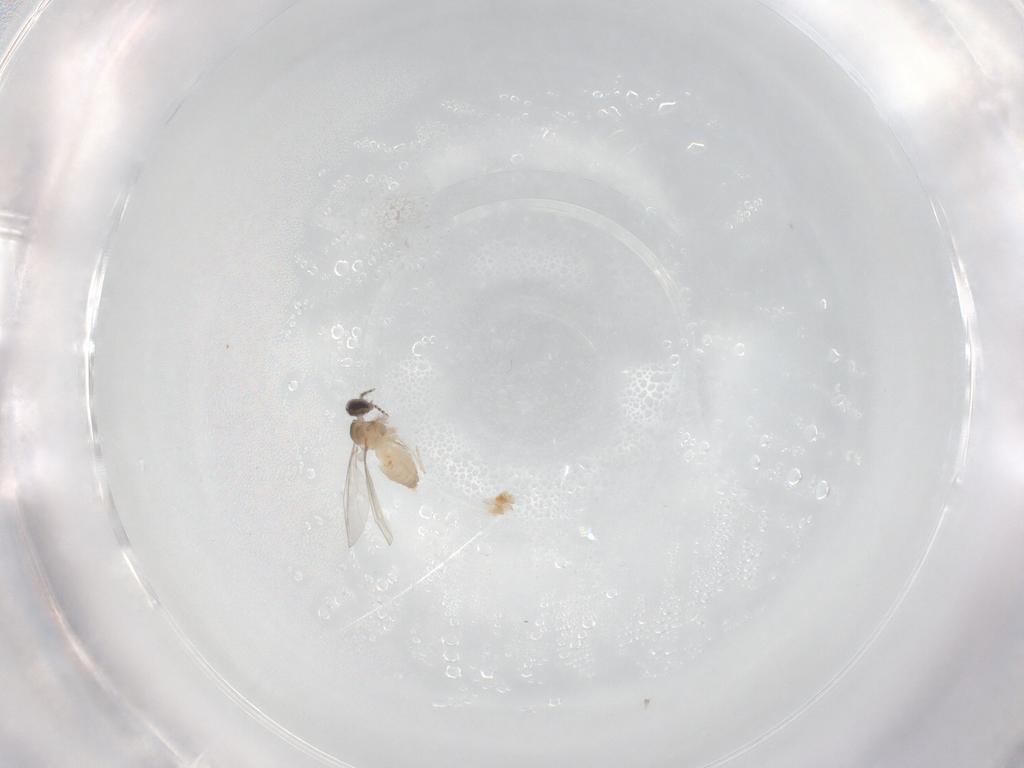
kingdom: Animalia
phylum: Arthropoda
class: Insecta
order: Diptera
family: Cecidomyiidae
